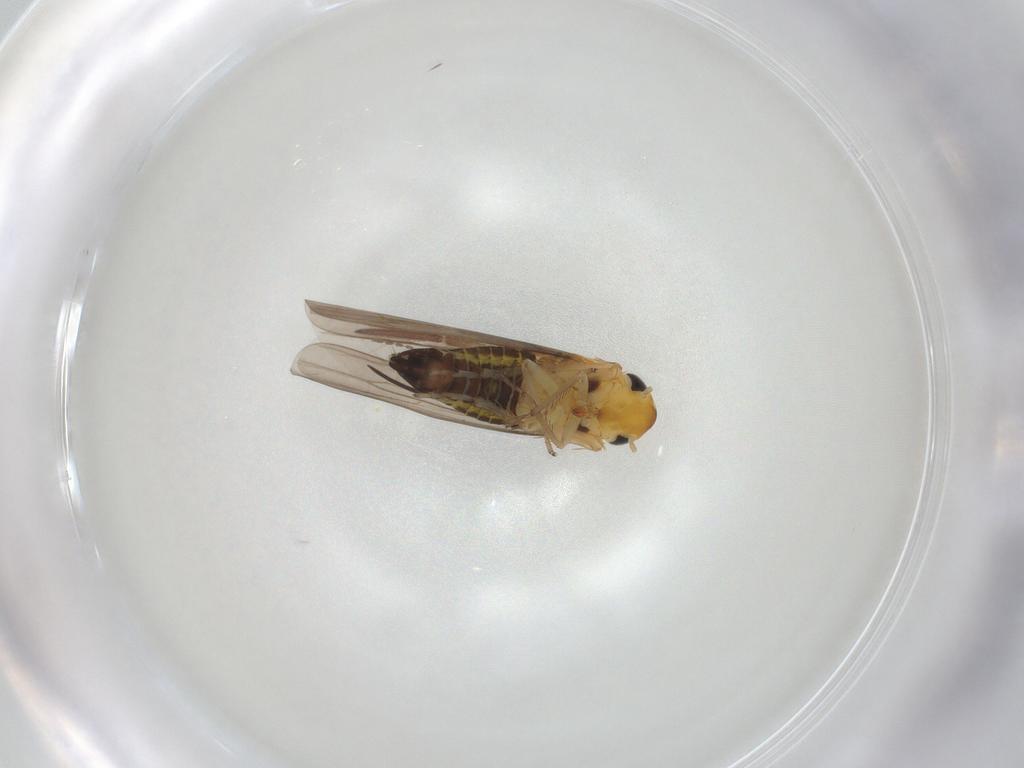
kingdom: Animalia
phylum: Arthropoda
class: Insecta
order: Hemiptera
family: Cicadellidae
